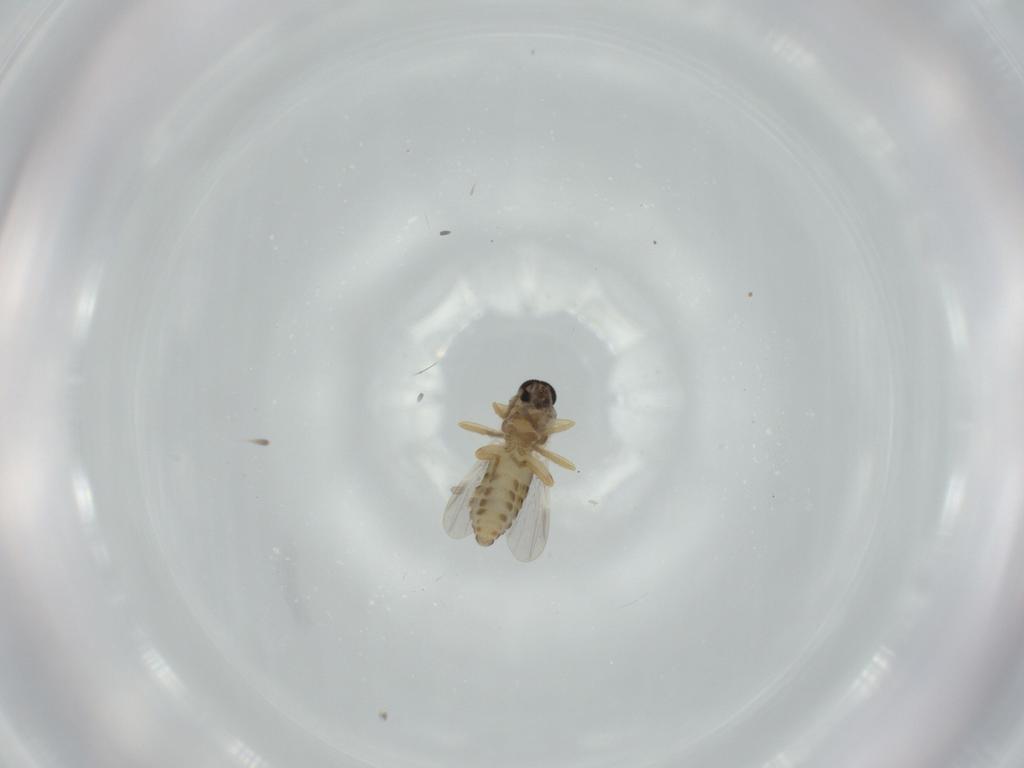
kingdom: Animalia
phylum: Arthropoda
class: Insecta
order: Diptera
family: Ceratopogonidae
